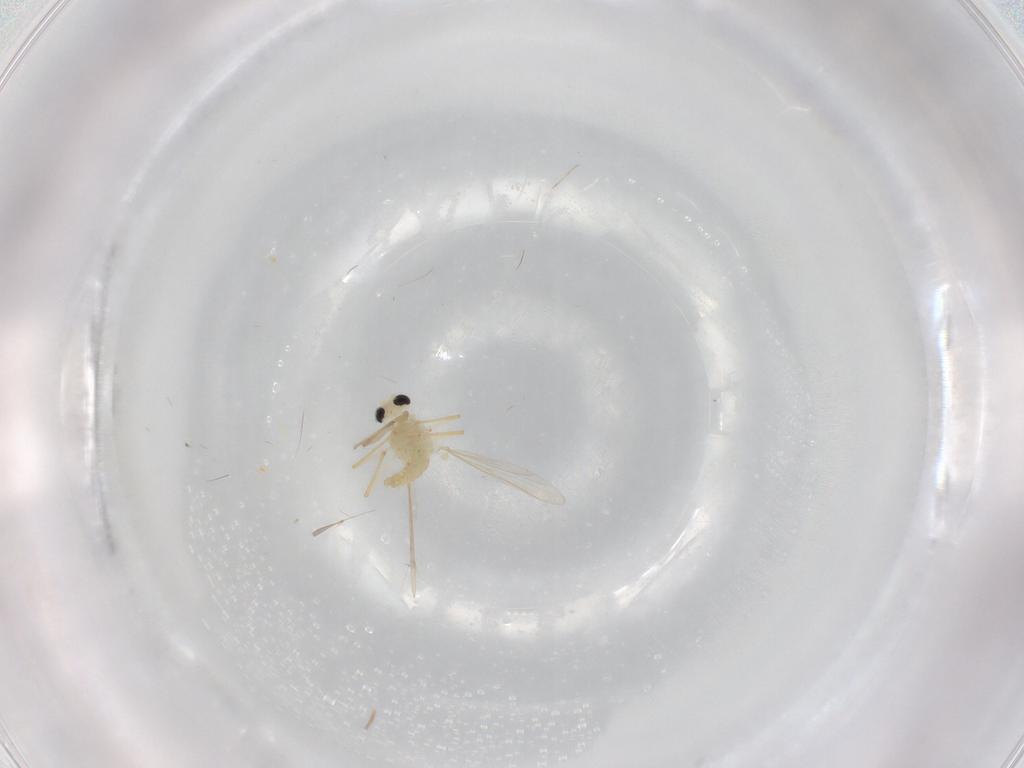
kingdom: Animalia
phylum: Arthropoda
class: Insecta
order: Diptera
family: Chironomidae
